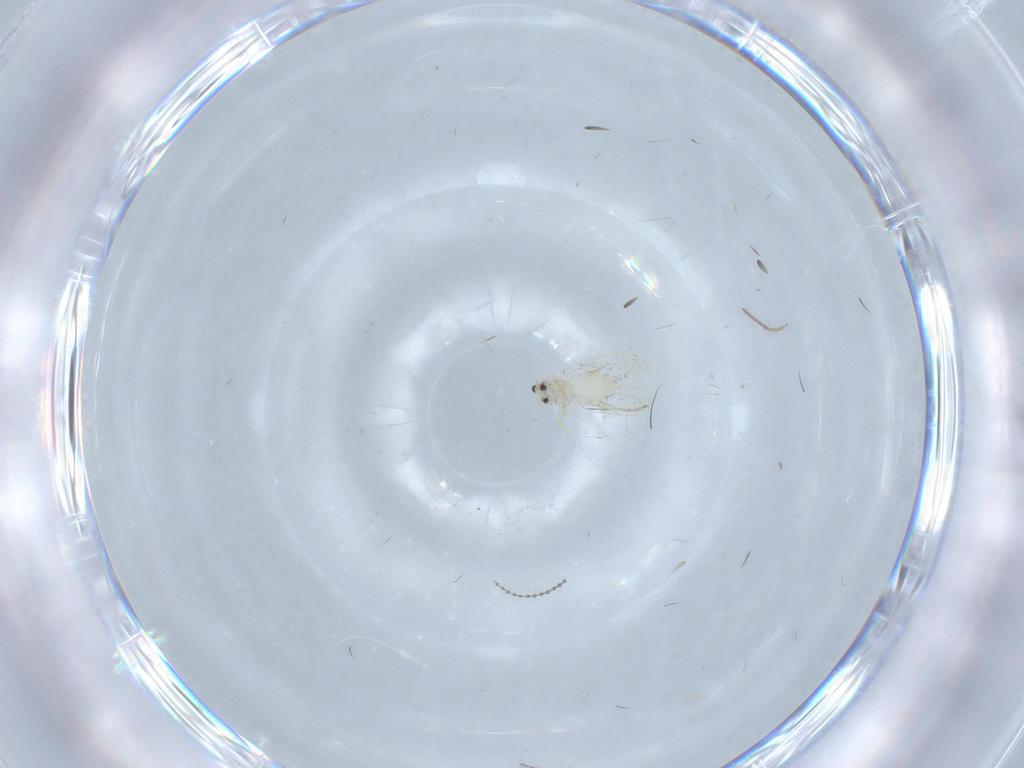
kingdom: Animalia
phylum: Arthropoda
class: Insecta
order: Hemiptera
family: Aleyrodidae
